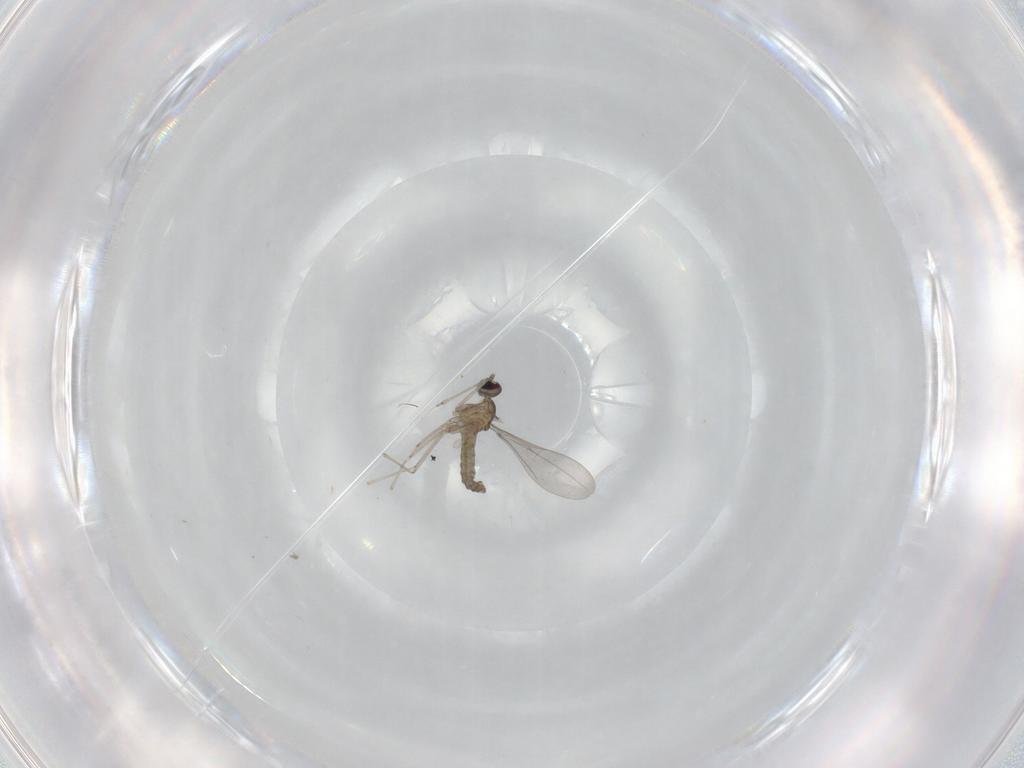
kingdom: Animalia
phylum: Arthropoda
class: Insecta
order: Diptera
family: Cecidomyiidae
